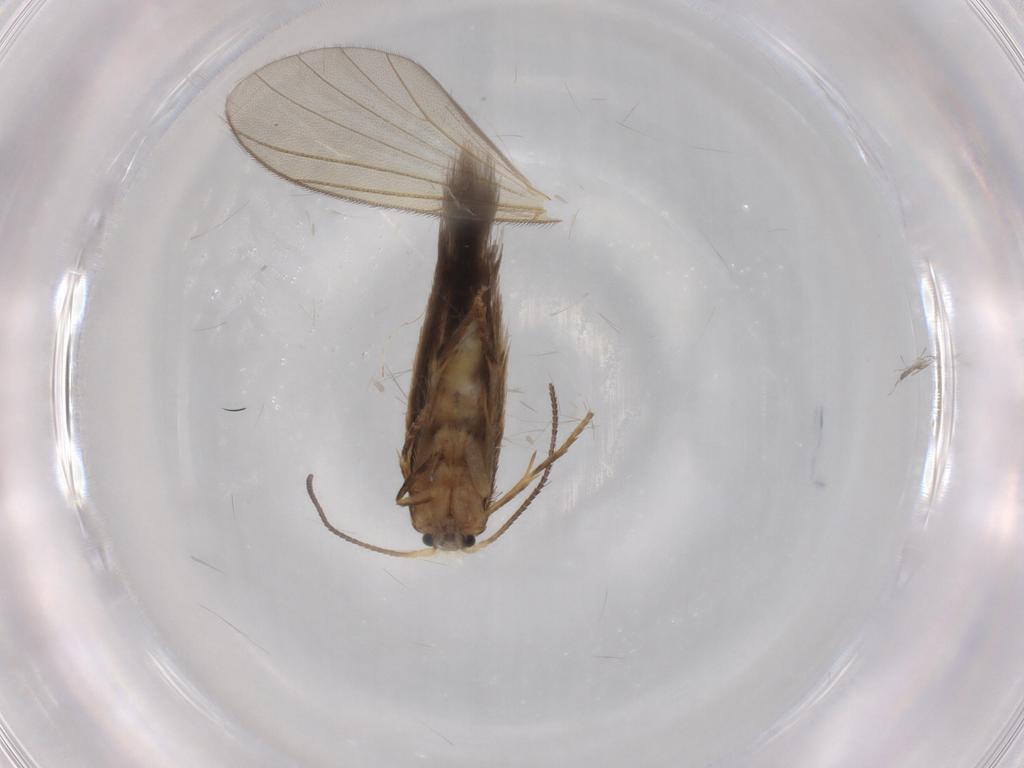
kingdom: Animalia
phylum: Arthropoda
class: Insecta
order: Lepidoptera
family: Nepticulidae
